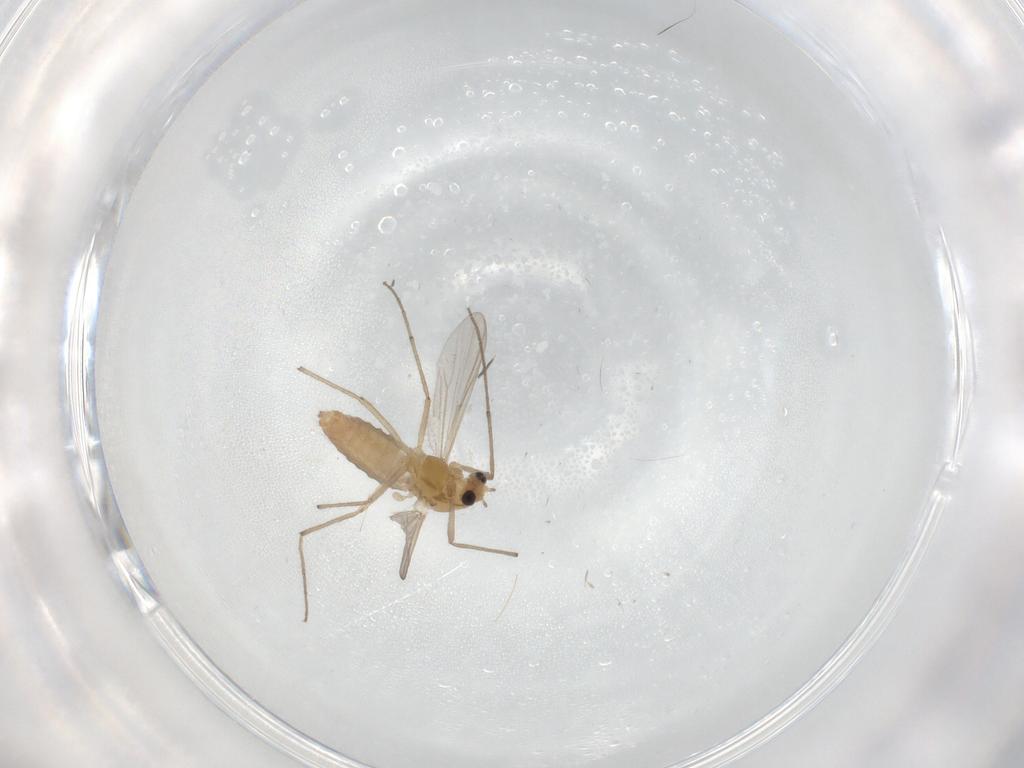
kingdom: Animalia
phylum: Arthropoda
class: Insecta
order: Diptera
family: Chironomidae
